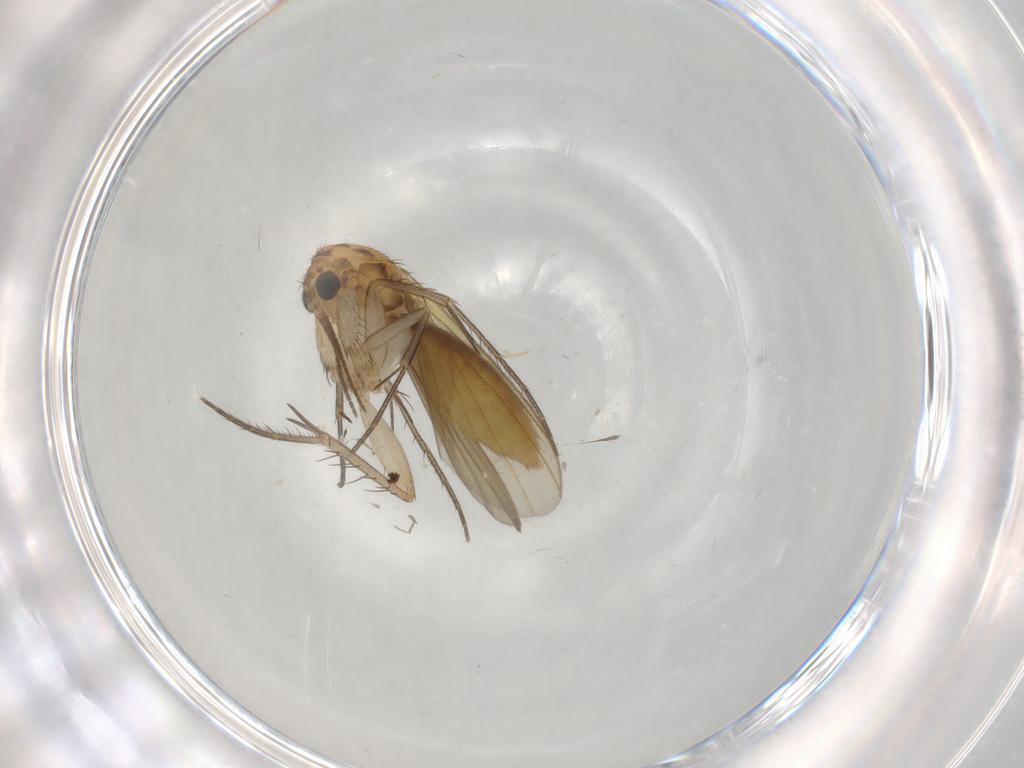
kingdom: Animalia
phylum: Arthropoda
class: Insecta
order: Diptera
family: Mycetophilidae
